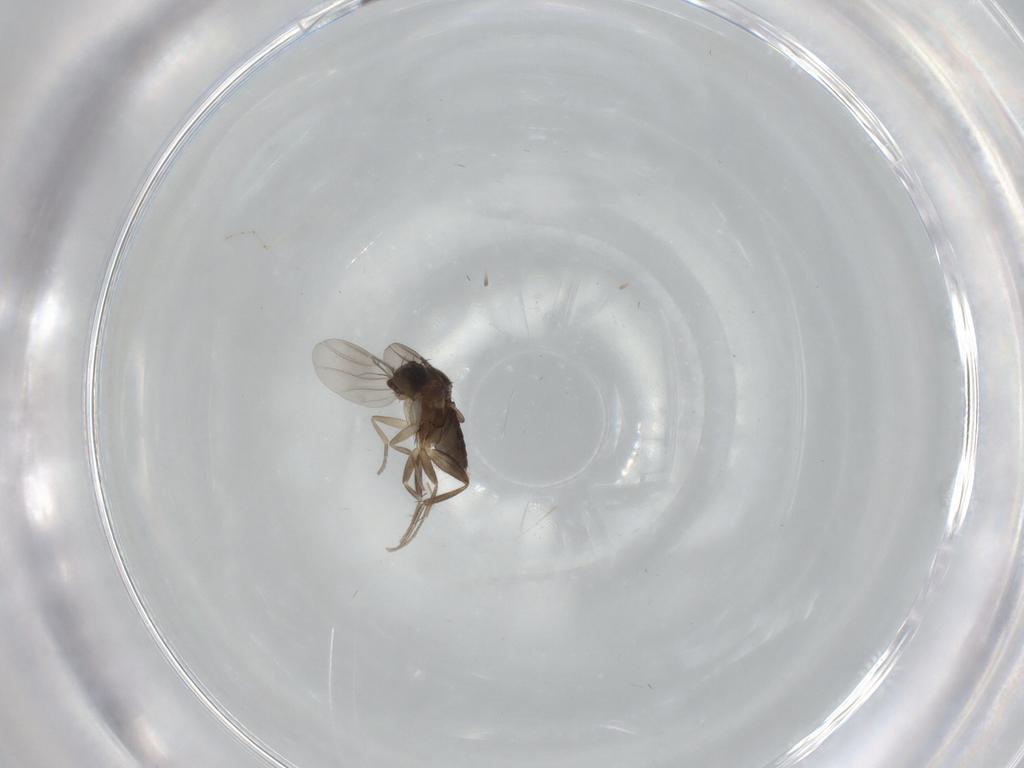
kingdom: Animalia
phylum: Arthropoda
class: Insecta
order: Diptera
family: Phoridae
